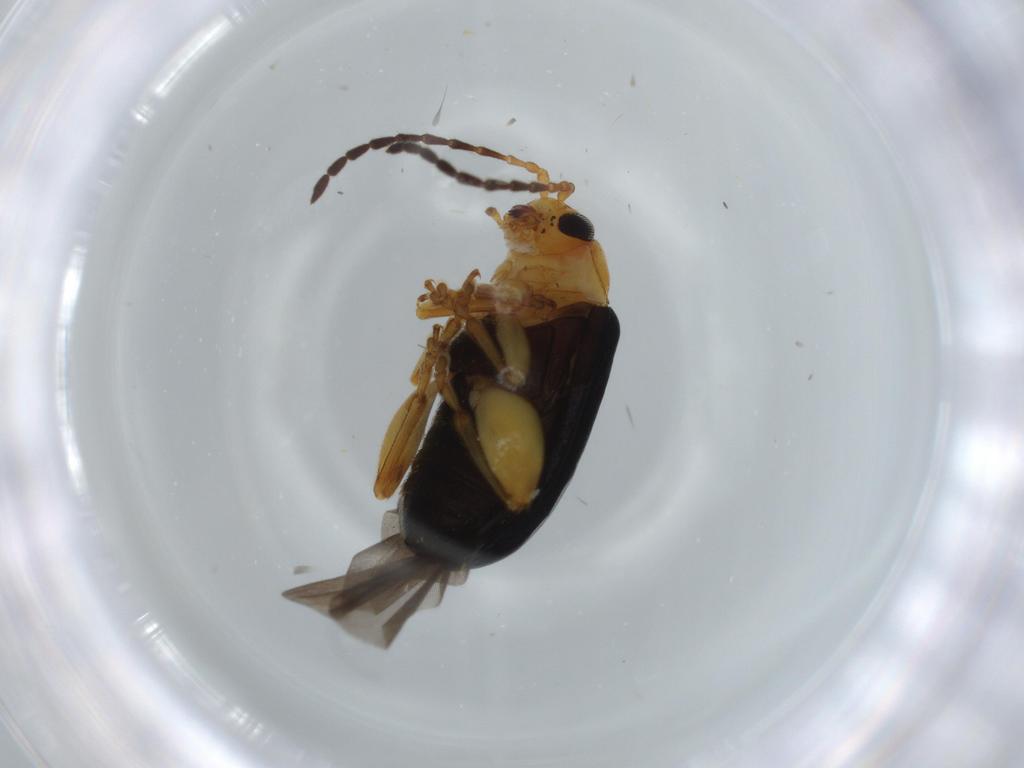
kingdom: Animalia
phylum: Arthropoda
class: Insecta
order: Coleoptera
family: Chrysomelidae
